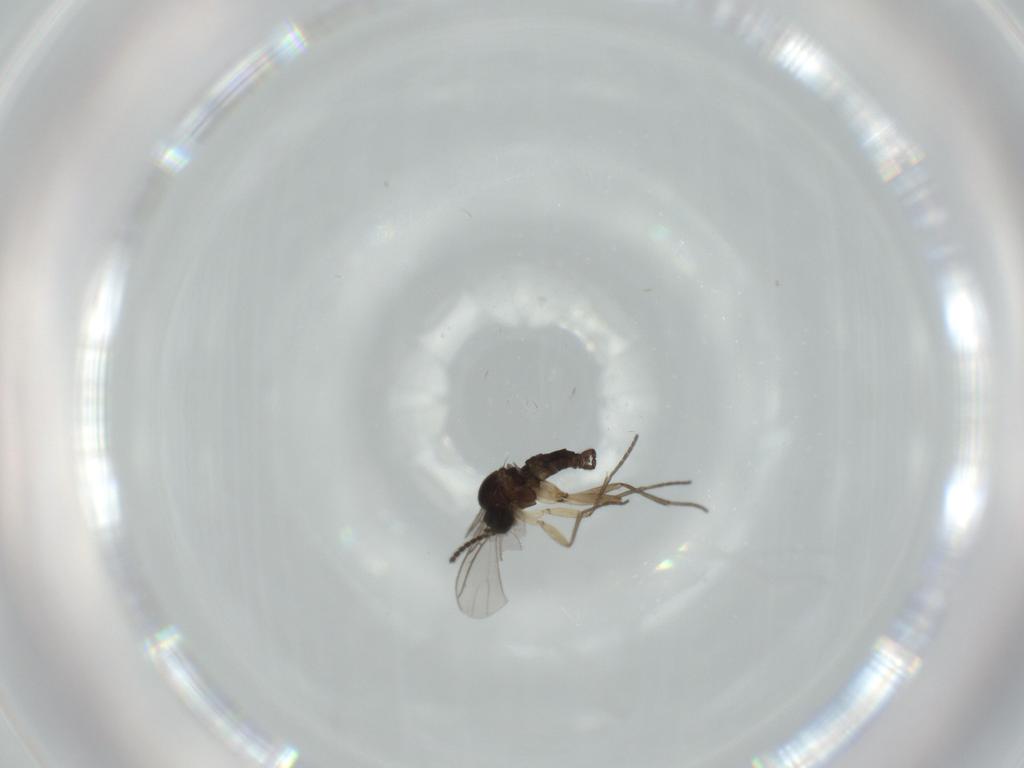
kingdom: Animalia
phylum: Arthropoda
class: Insecta
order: Diptera
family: Sciaridae
